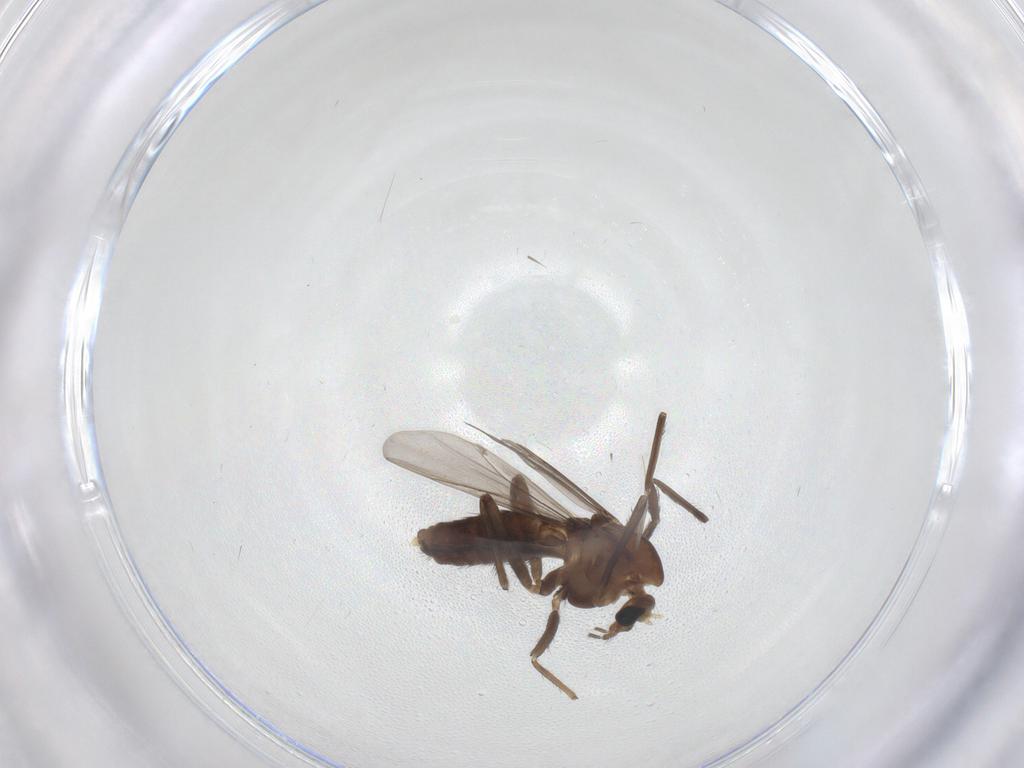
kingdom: Animalia
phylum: Arthropoda
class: Insecta
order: Diptera
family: Chironomidae
